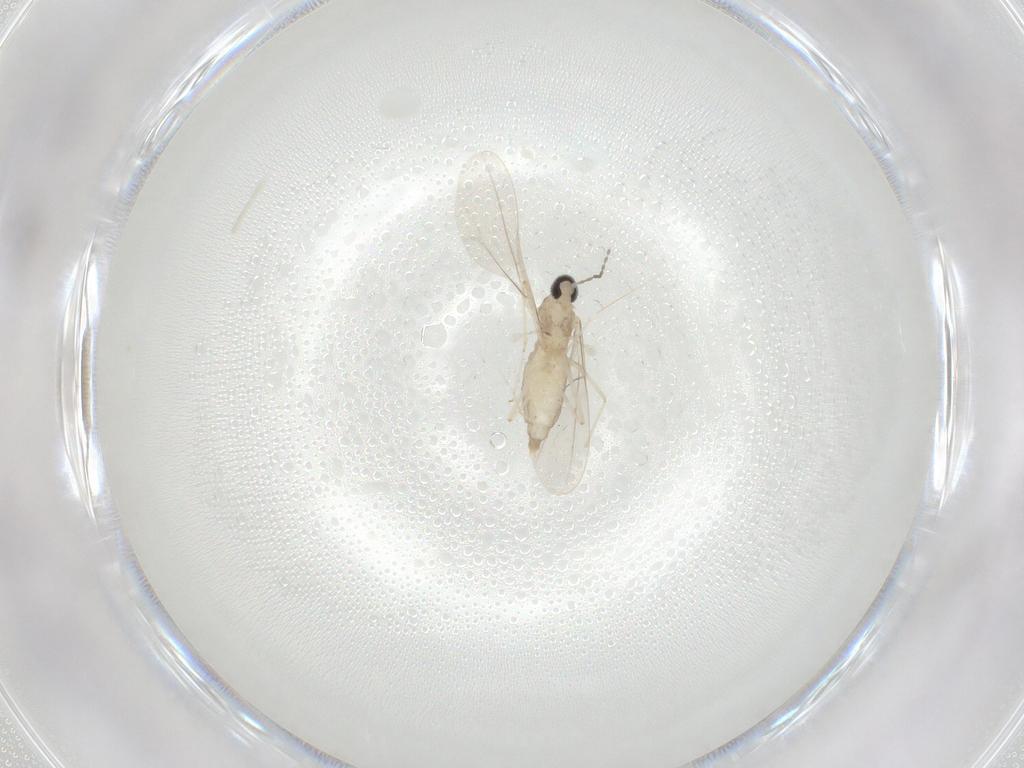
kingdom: Animalia
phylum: Arthropoda
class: Insecta
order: Diptera
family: Cecidomyiidae
